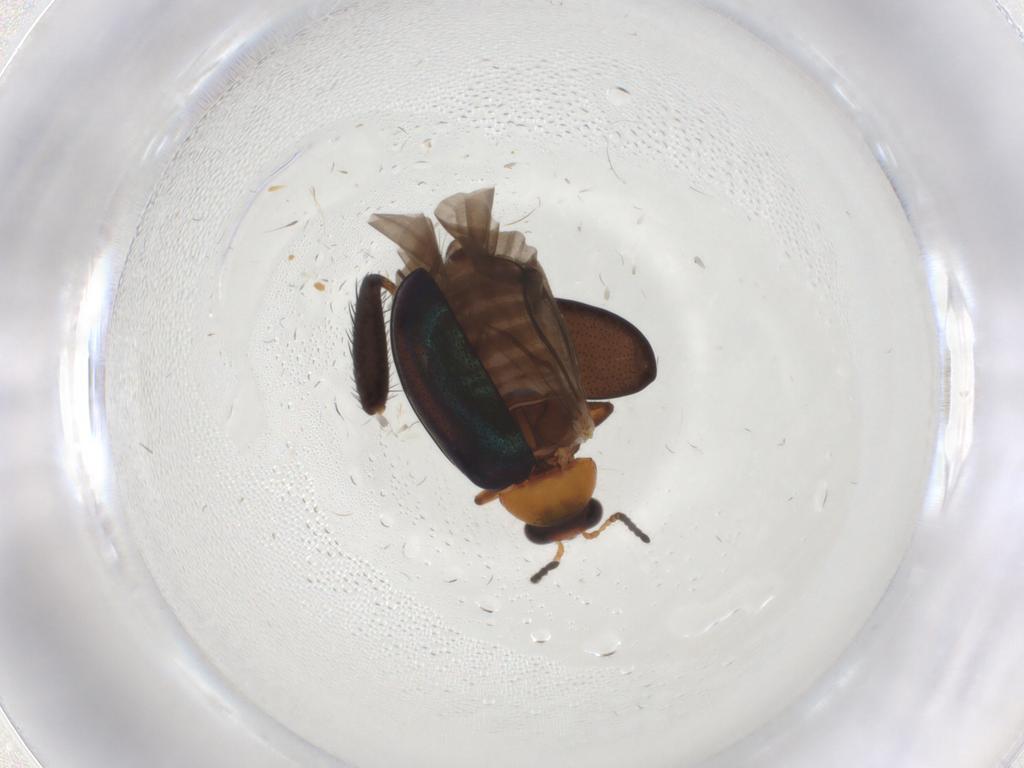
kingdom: Animalia
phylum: Arthropoda
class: Insecta
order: Coleoptera
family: Chrysomelidae
